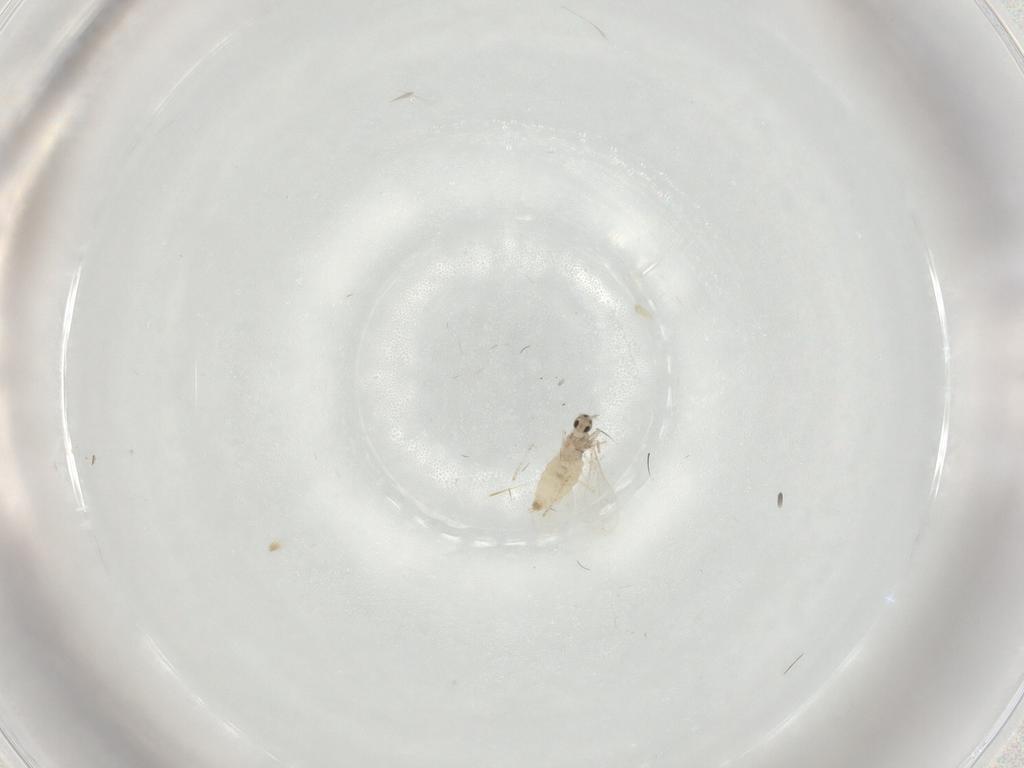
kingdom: Animalia
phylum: Arthropoda
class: Insecta
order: Diptera
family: Cecidomyiidae
